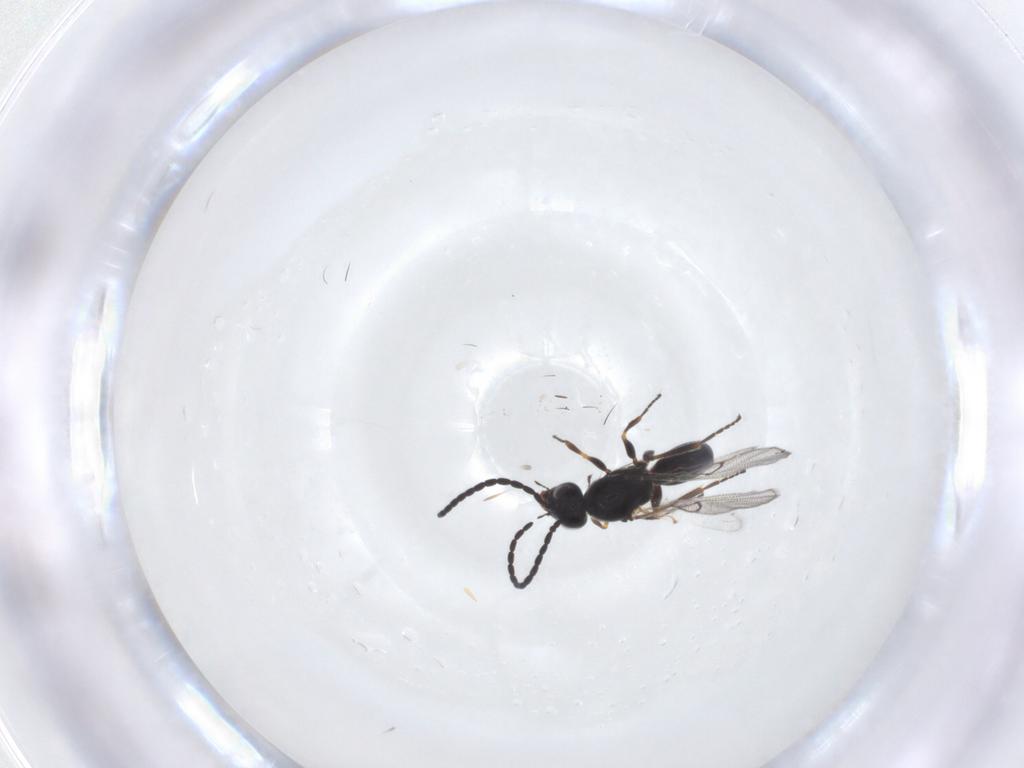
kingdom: Animalia
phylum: Arthropoda
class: Insecta
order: Hymenoptera
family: Figitidae
